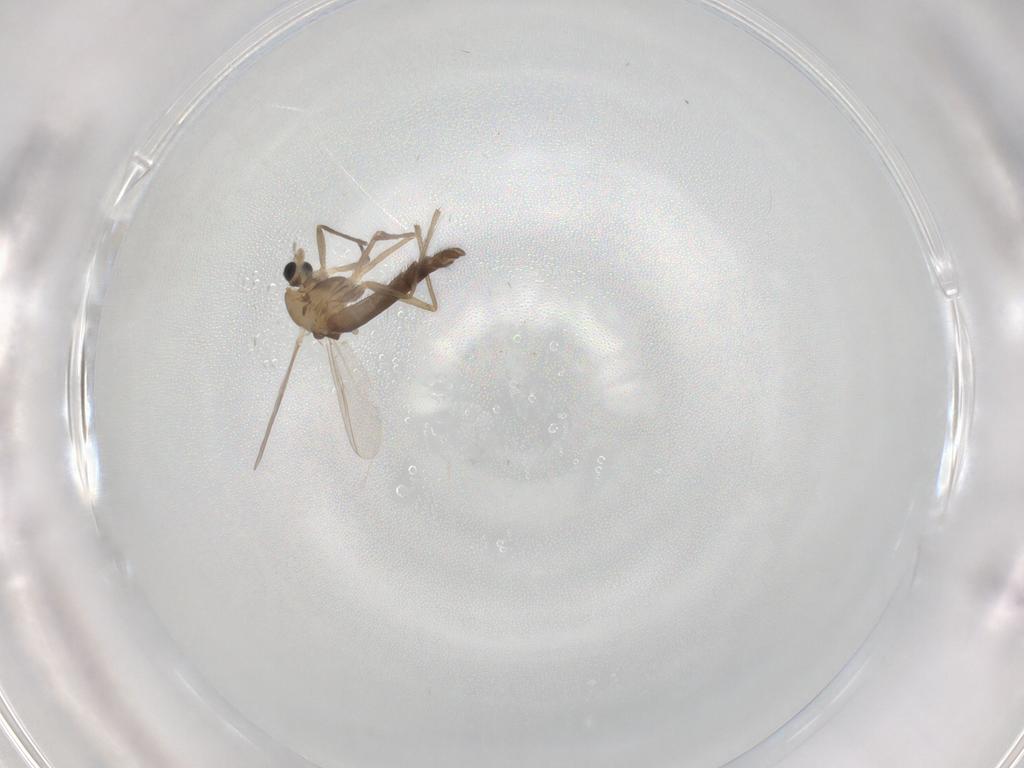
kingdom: Animalia
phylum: Arthropoda
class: Insecta
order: Diptera
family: Chironomidae
